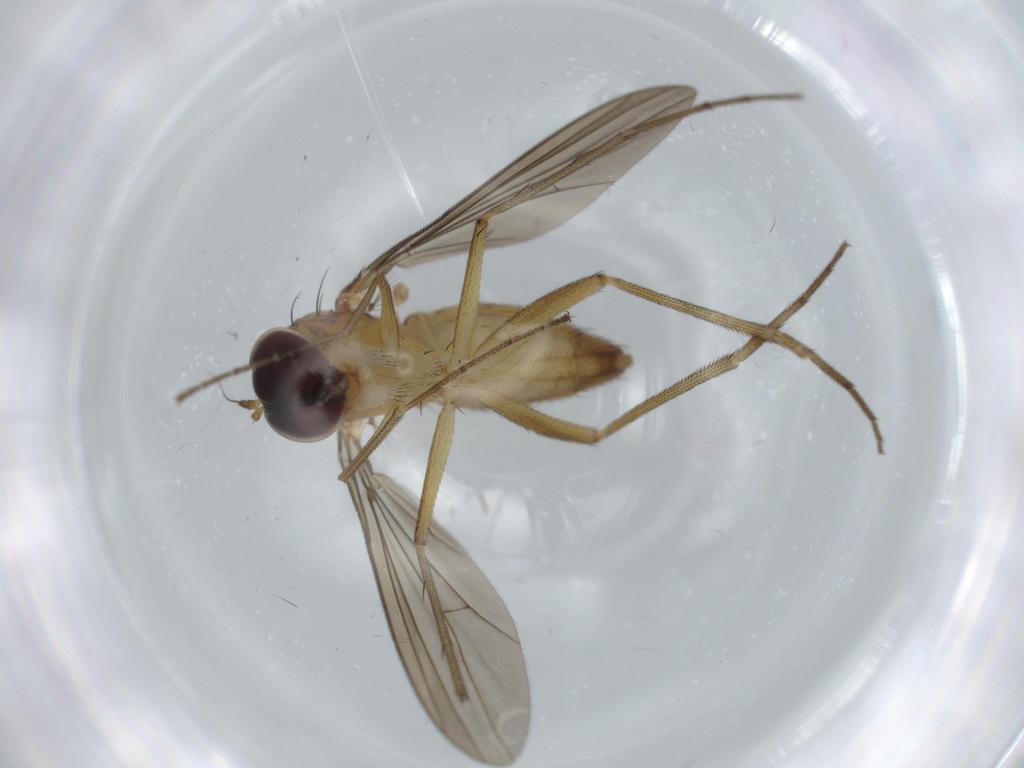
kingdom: Animalia
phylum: Arthropoda
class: Insecta
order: Diptera
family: Dolichopodidae
